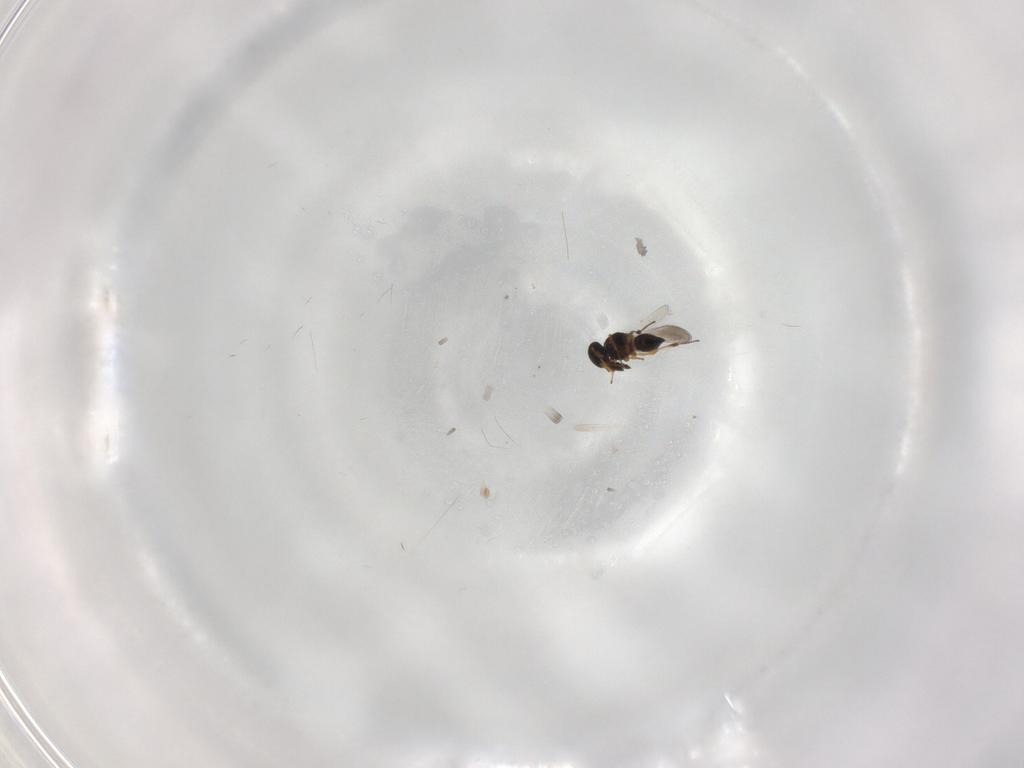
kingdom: Animalia
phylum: Arthropoda
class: Insecta
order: Hymenoptera
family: Platygastridae
